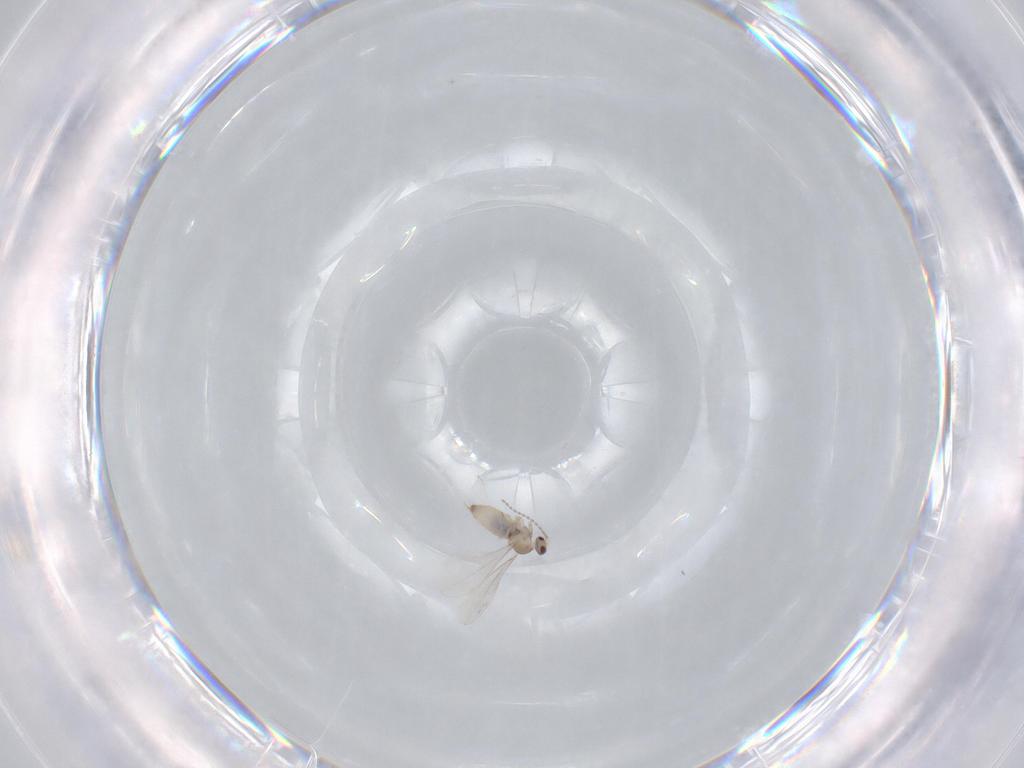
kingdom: Animalia
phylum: Arthropoda
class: Insecta
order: Diptera
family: Cecidomyiidae
